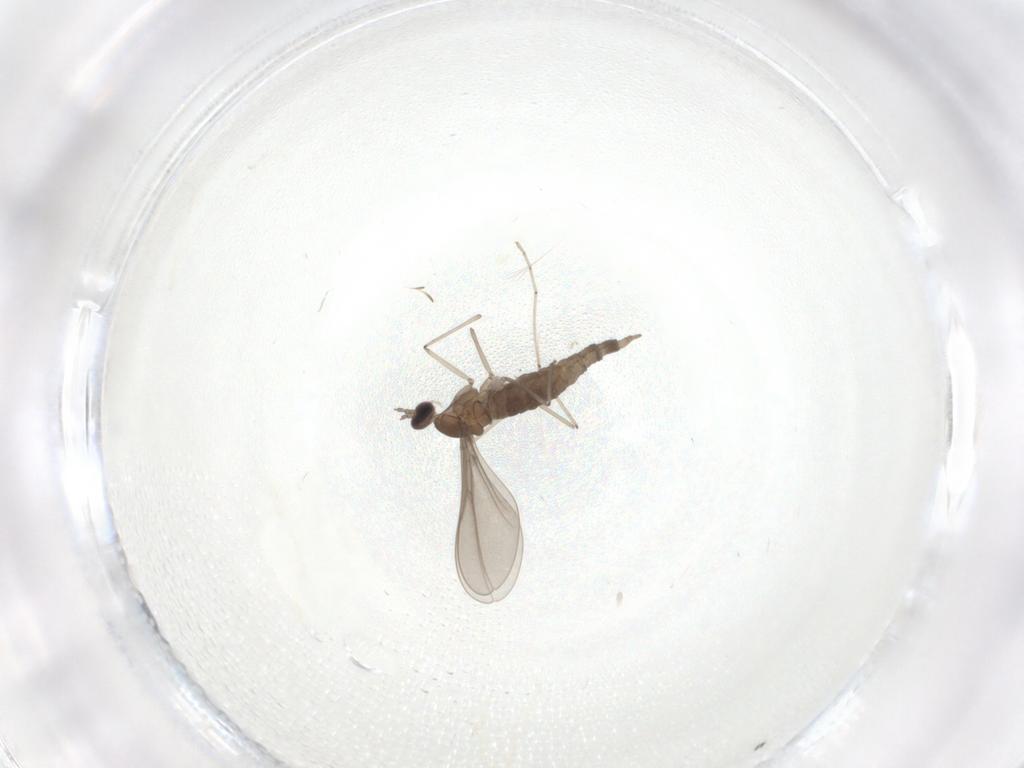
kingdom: Animalia
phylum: Arthropoda
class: Insecta
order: Diptera
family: Cecidomyiidae
